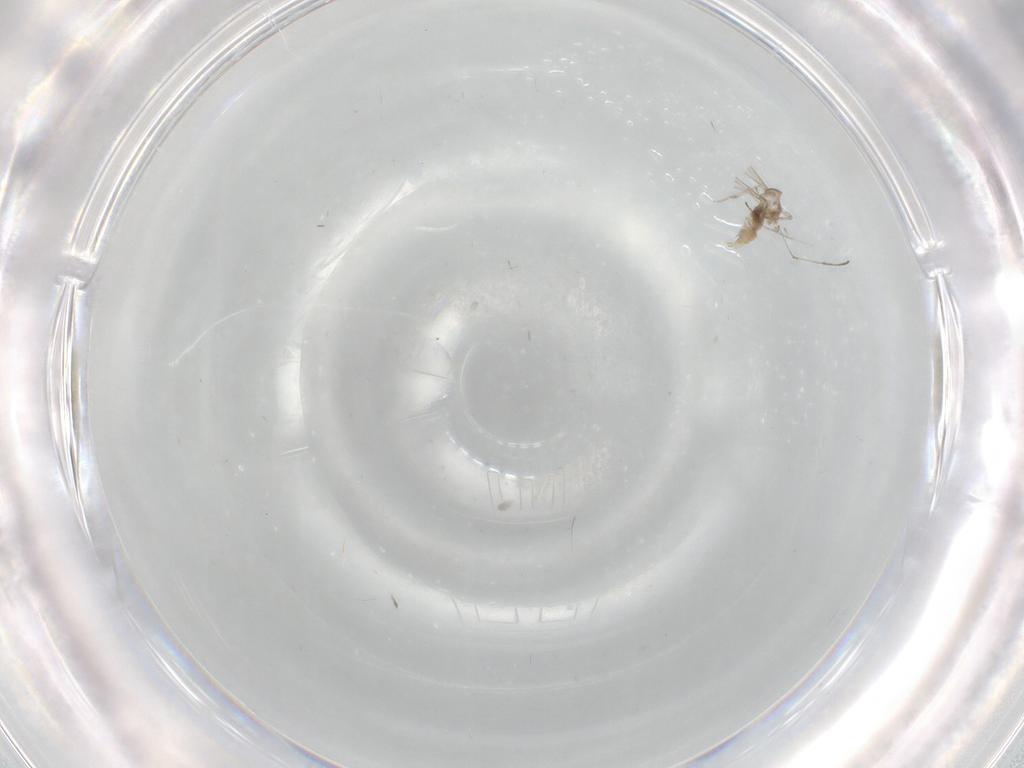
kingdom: Animalia
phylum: Arthropoda
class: Insecta
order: Diptera
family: Cecidomyiidae
